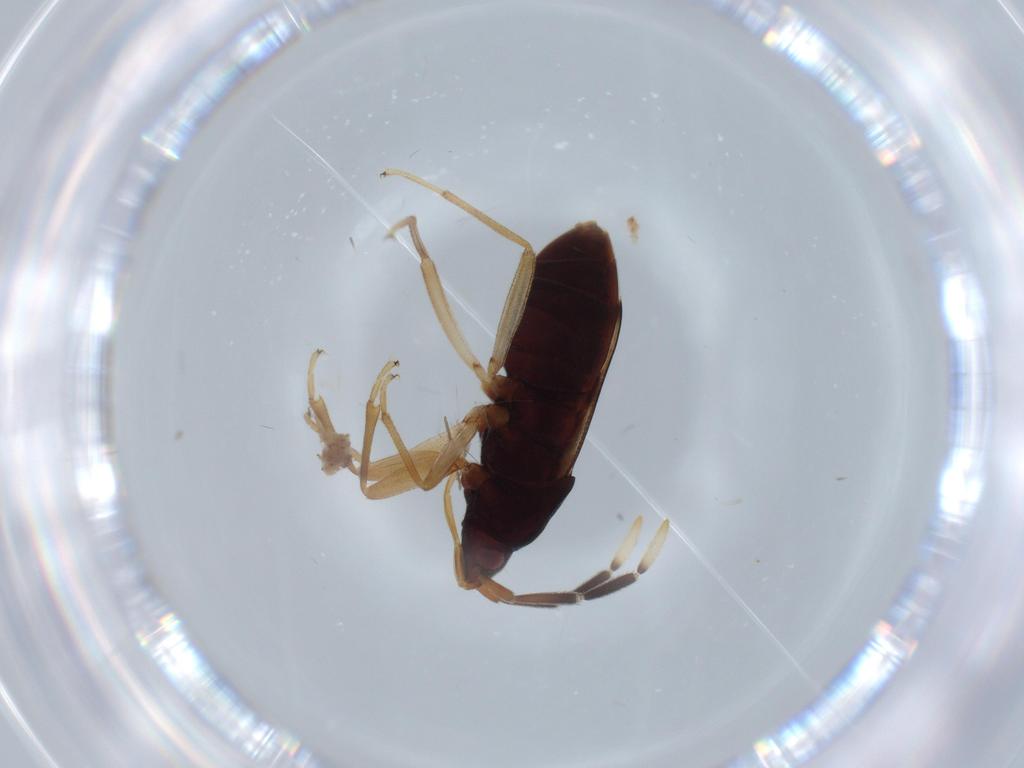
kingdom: Animalia
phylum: Arthropoda
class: Insecta
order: Hemiptera
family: Rhyparochromidae
